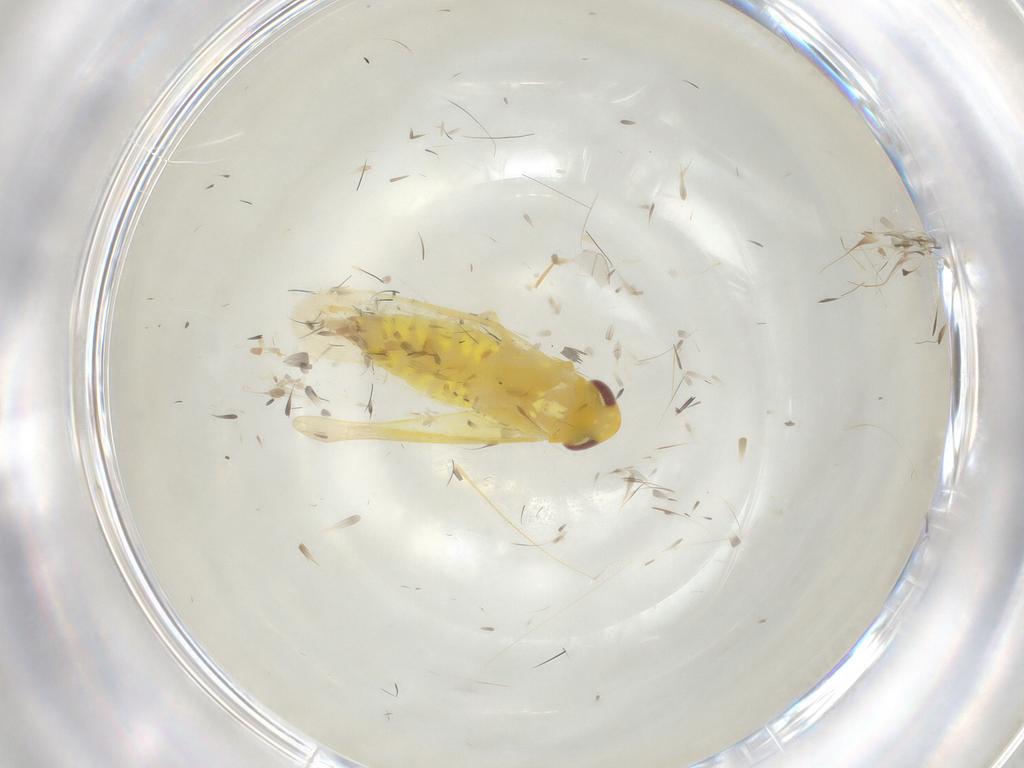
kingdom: Animalia
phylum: Arthropoda
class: Insecta
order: Hemiptera
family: Cicadellidae
